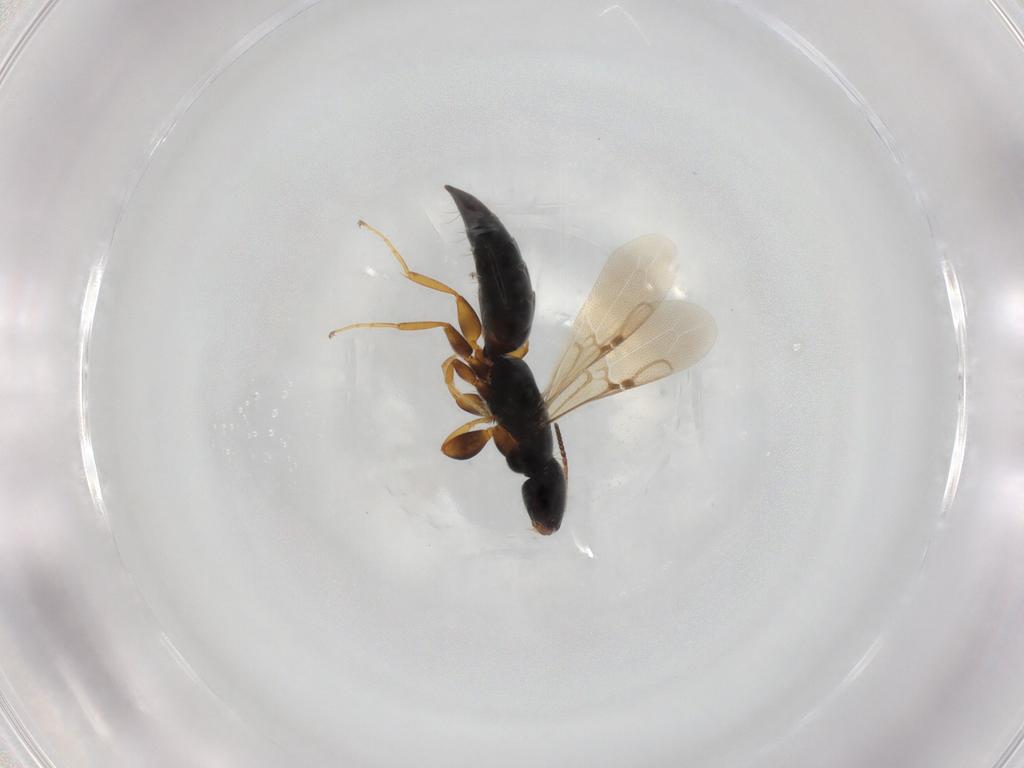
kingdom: Animalia
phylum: Arthropoda
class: Insecta
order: Hymenoptera
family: Bethylidae
